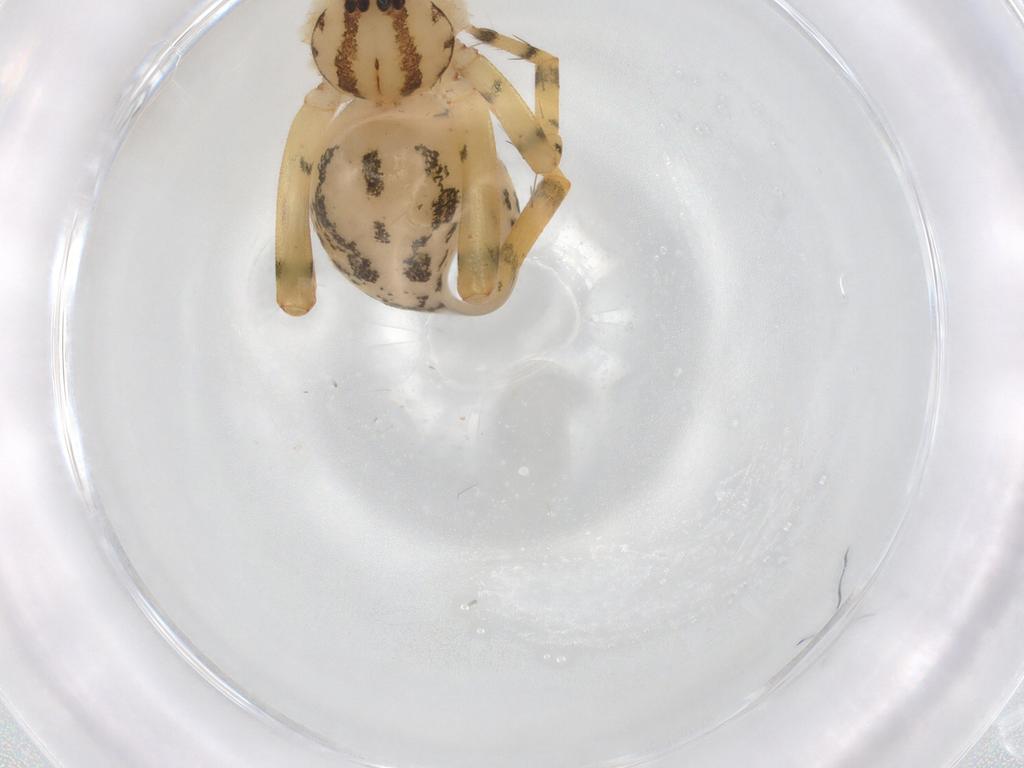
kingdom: Animalia
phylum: Arthropoda
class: Arachnida
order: Araneae
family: Miturgidae
